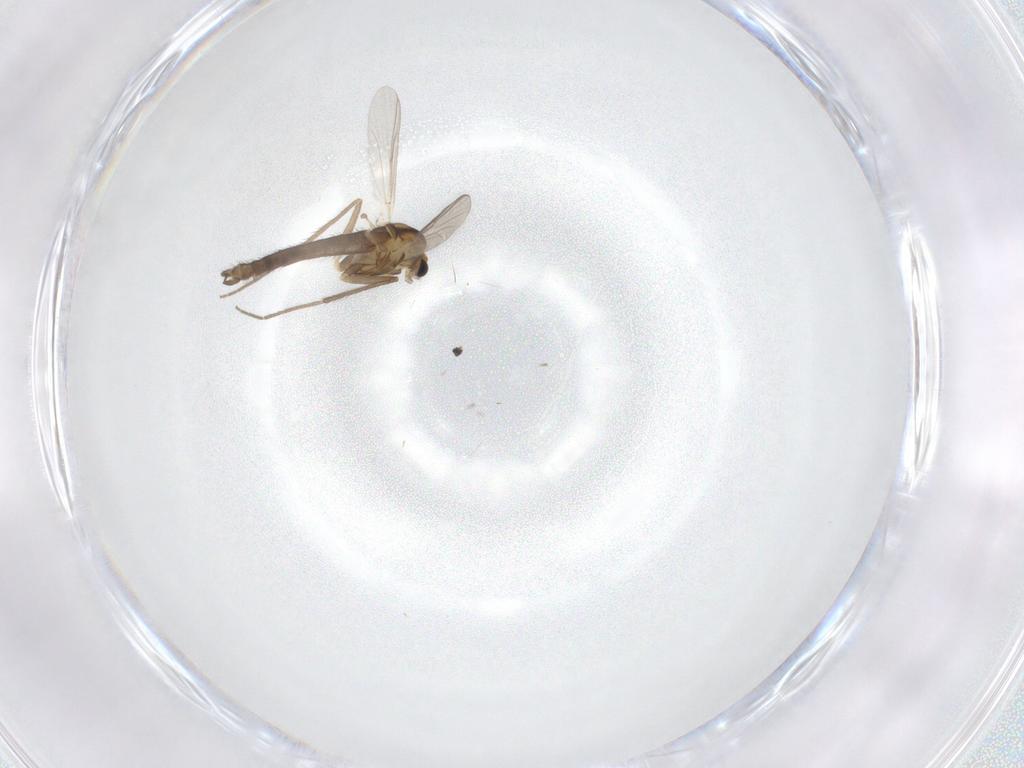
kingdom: Animalia
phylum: Arthropoda
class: Insecta
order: Diptera
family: Chironomidae
